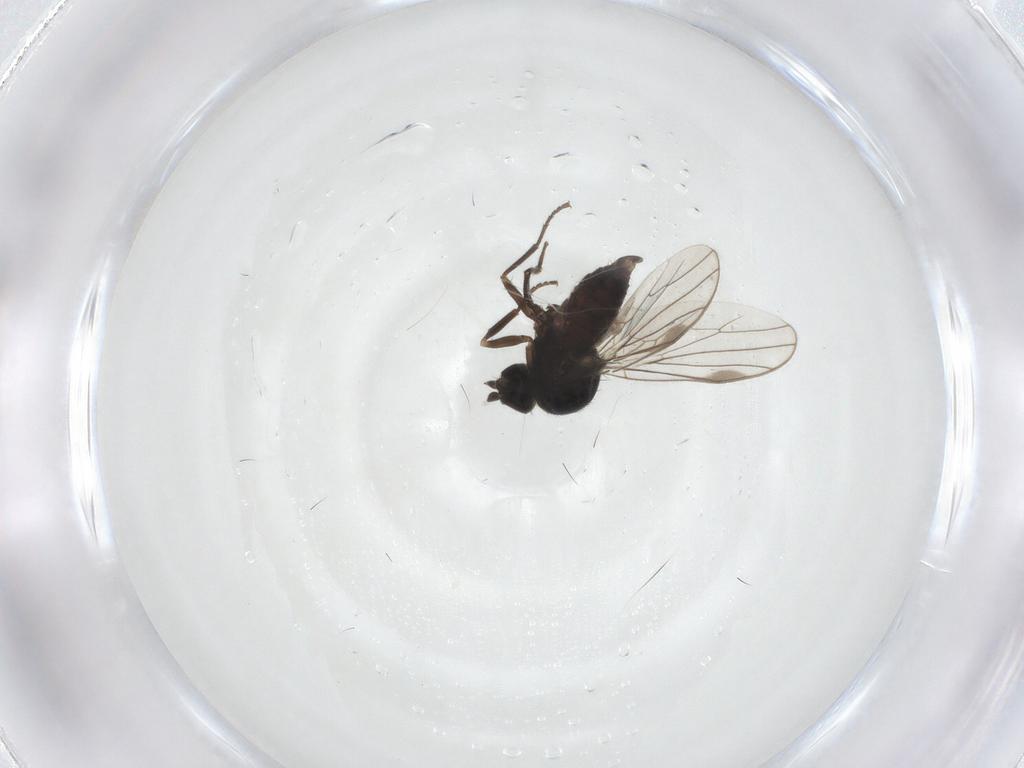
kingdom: Animalia
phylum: Arthropoda
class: Insecta
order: Diptera
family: Hybotidae
